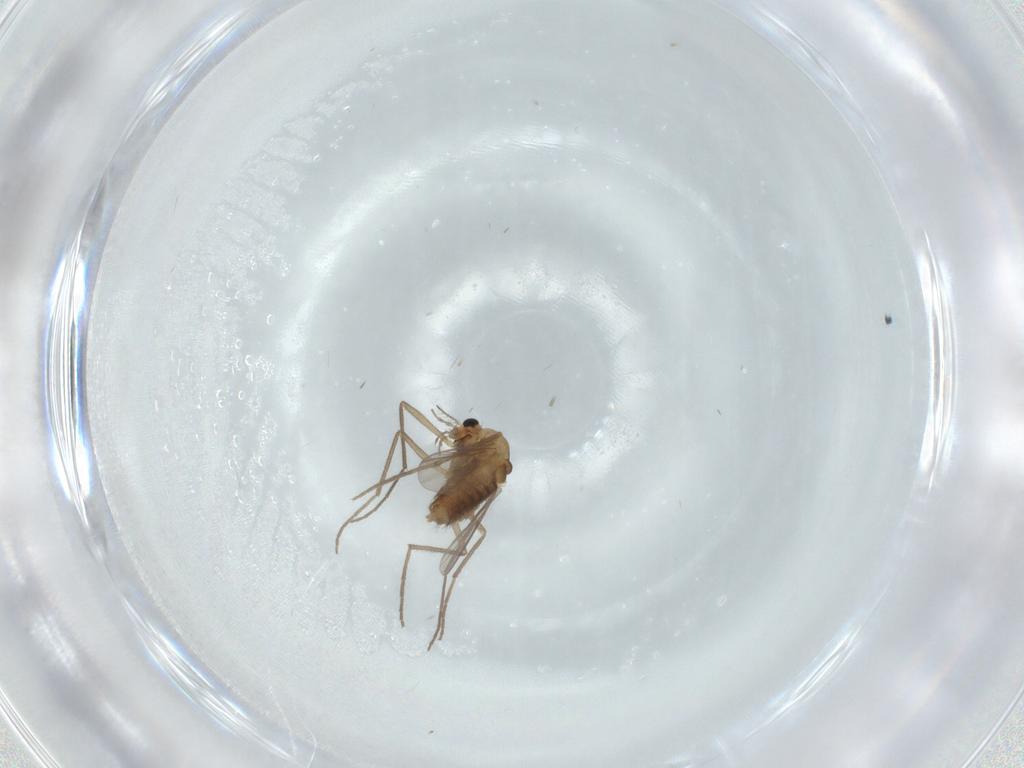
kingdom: Animalia
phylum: Arthropoda
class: Insecta
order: Diptera
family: Chironomidae
